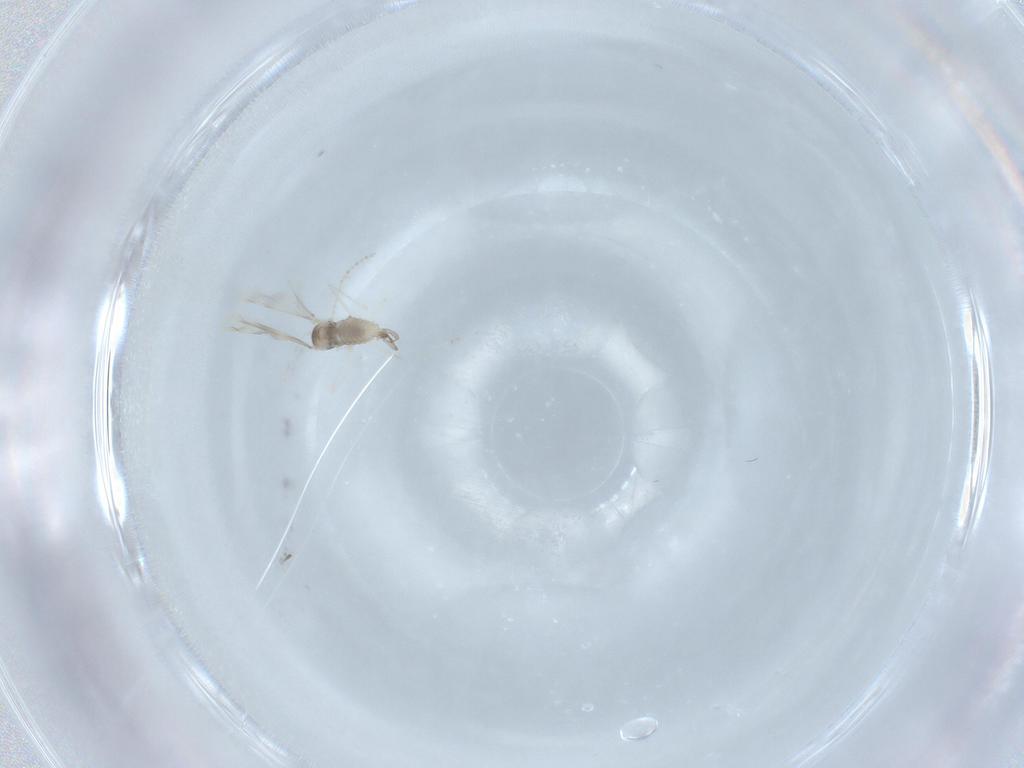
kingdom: Animalia
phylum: Arthropoda
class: Insecta
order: Diptera
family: Cecidomyiidae
